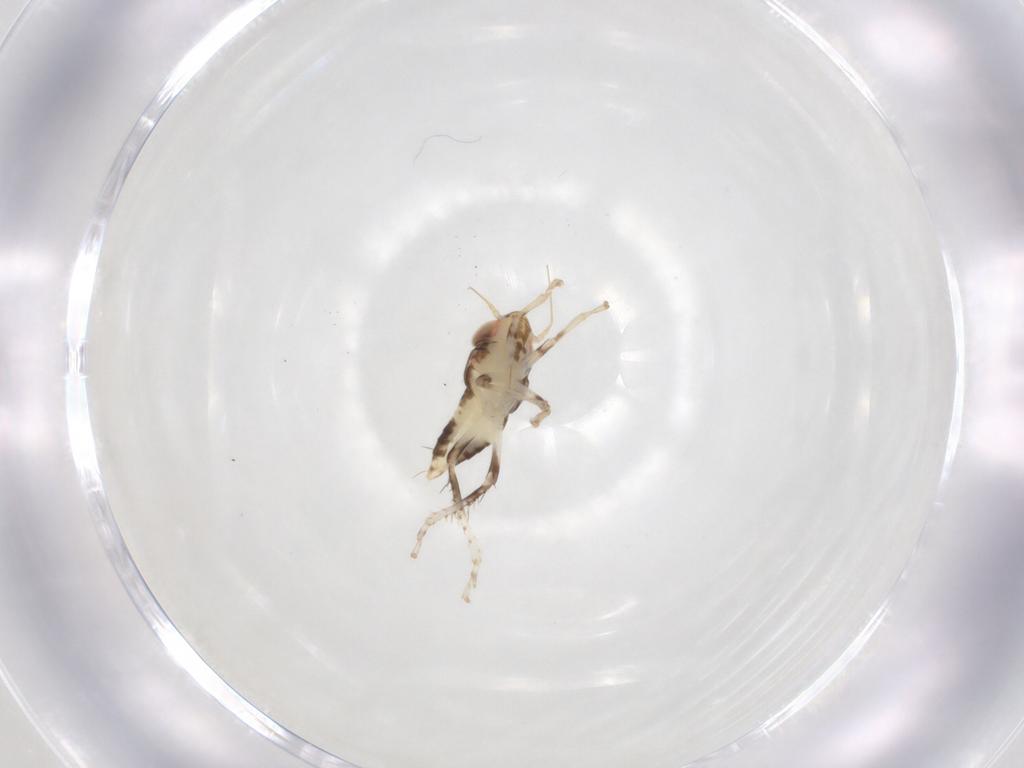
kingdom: Animalia
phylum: Arthropoda
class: Insecta
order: Hemiptera
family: Cicadellidae
